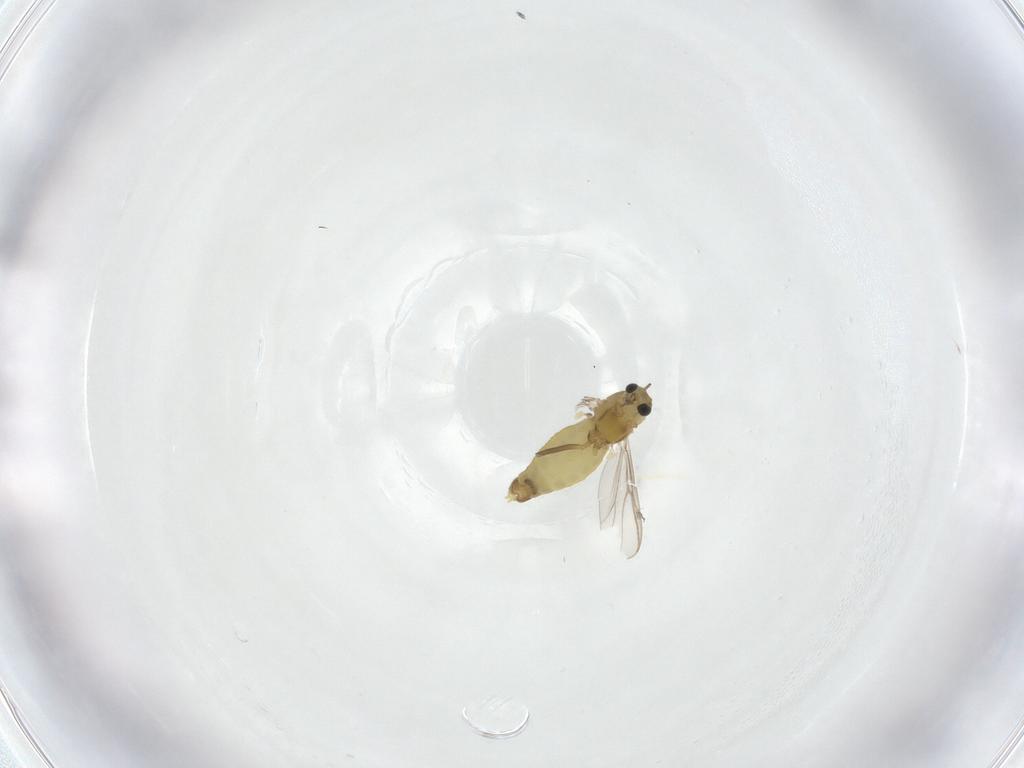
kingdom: Animalia
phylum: Arthropoda
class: Insecta
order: Diptera
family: Chironomidae
